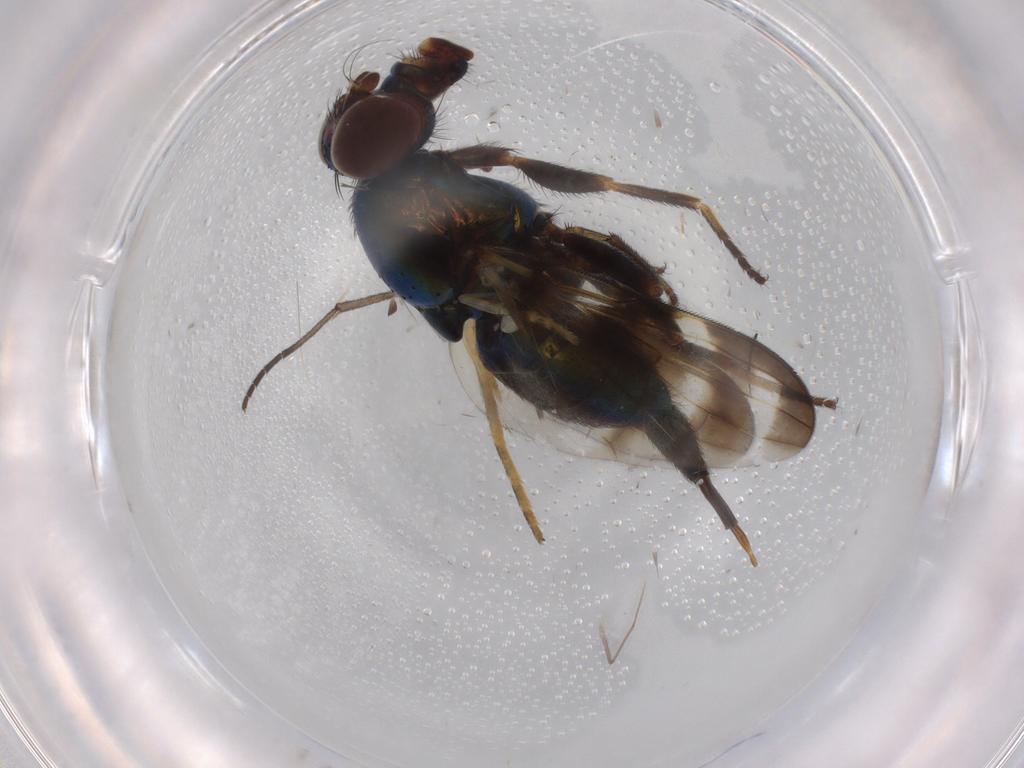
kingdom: Animalia
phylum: Arthropoda
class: Insecta
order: Diptera
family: Ulidiidae
